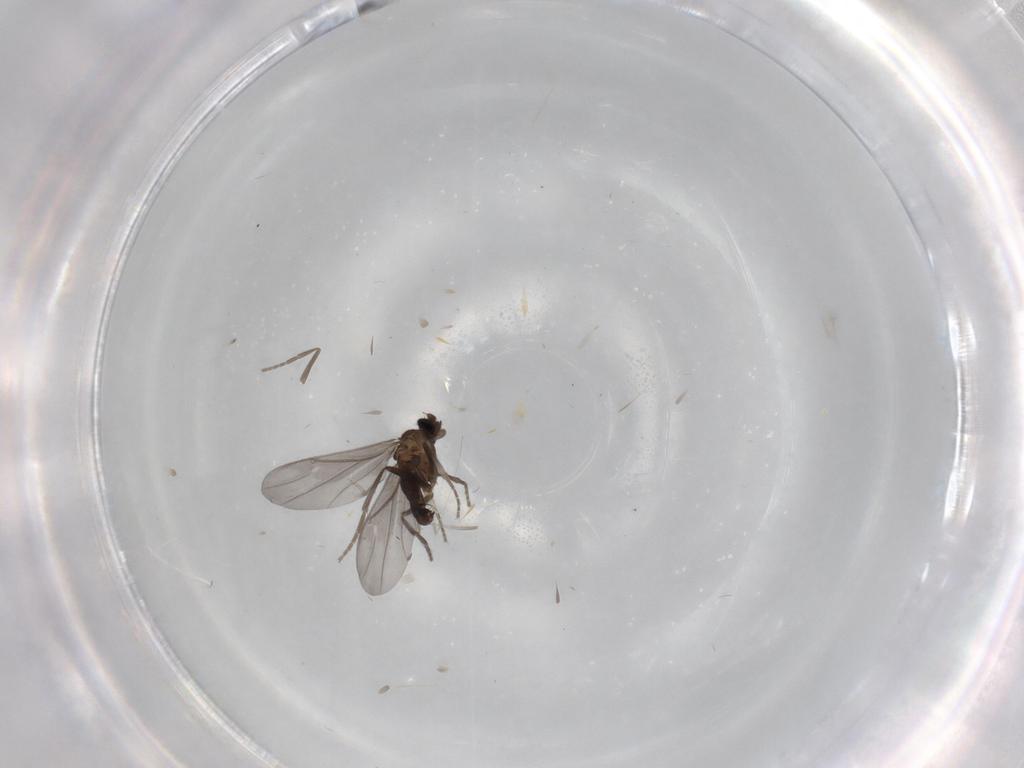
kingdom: Animalia
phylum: Arthropoda
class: Insecta
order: Diptera
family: Phoridae
